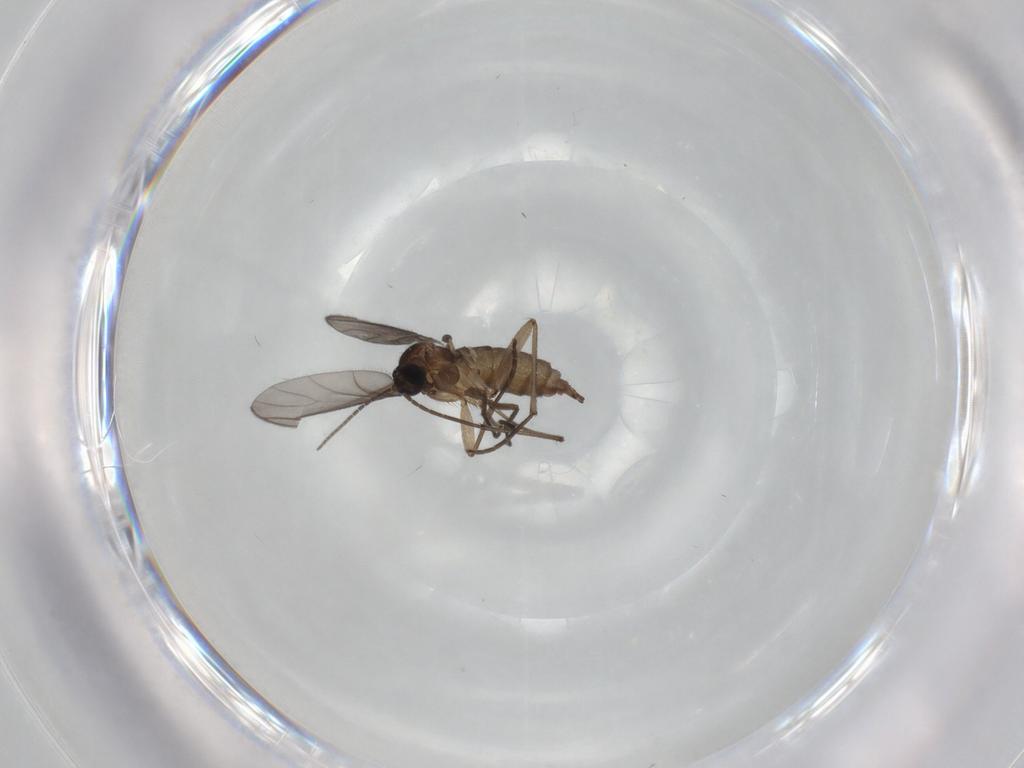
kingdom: Animalia
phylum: Arthropoda
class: Insecta
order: Diptera
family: Sciaridae
